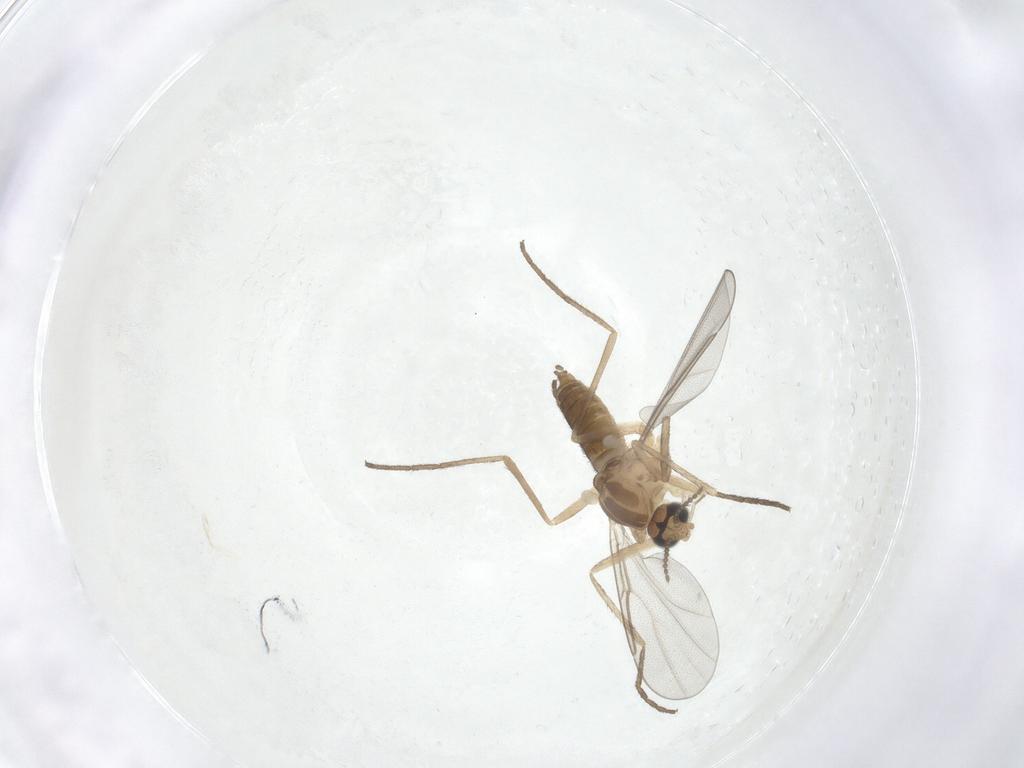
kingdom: Animalia
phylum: Arthropoda
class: Insecta
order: Diptera
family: Cecidomyiidae
